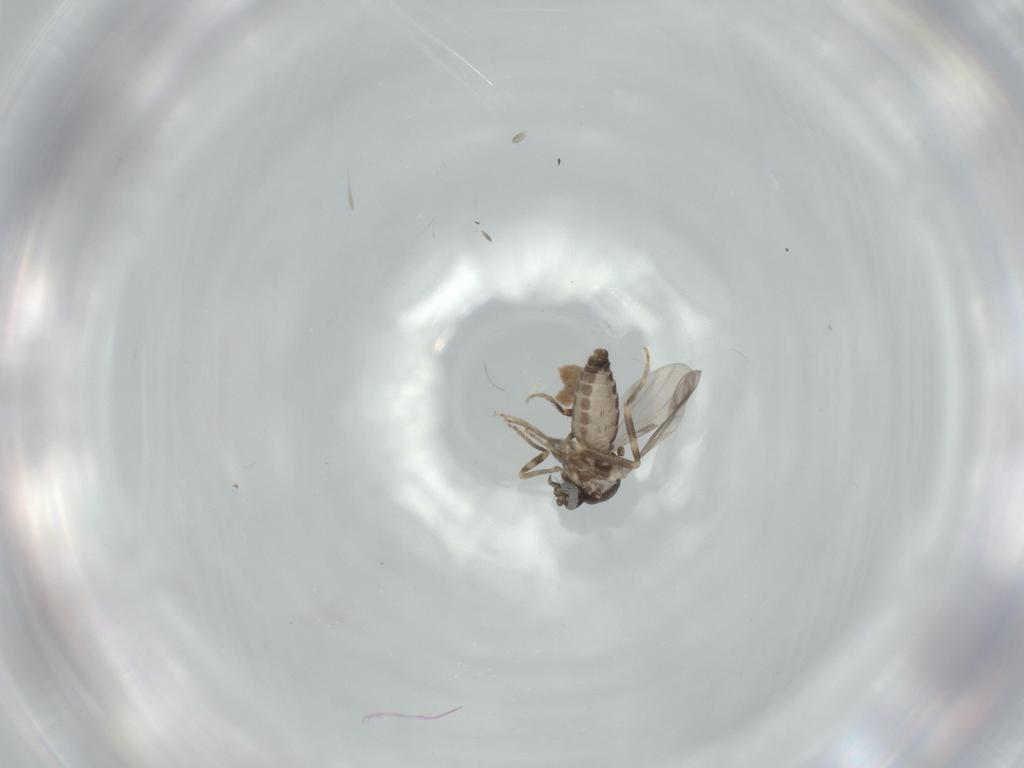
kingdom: Animalia
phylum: Arthropoda
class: Insecta
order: Diptera
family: Ceratopogonidae
